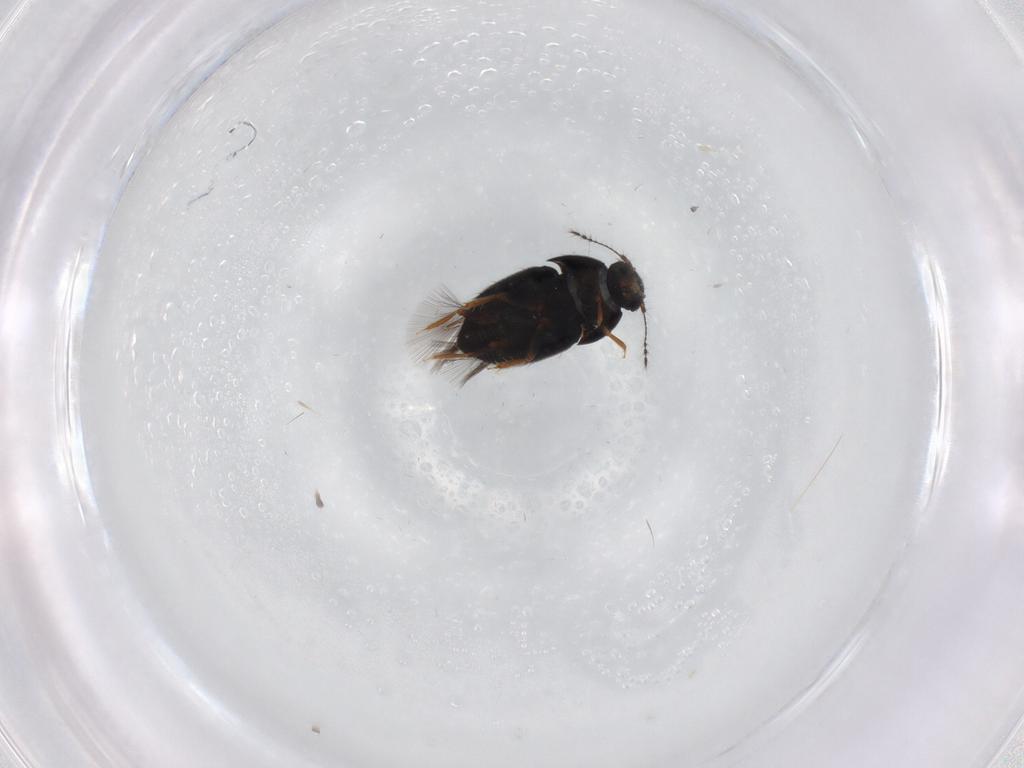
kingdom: Animalia
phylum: Arthropoda
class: Insecta
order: Coleoptera
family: Ptiliidae
